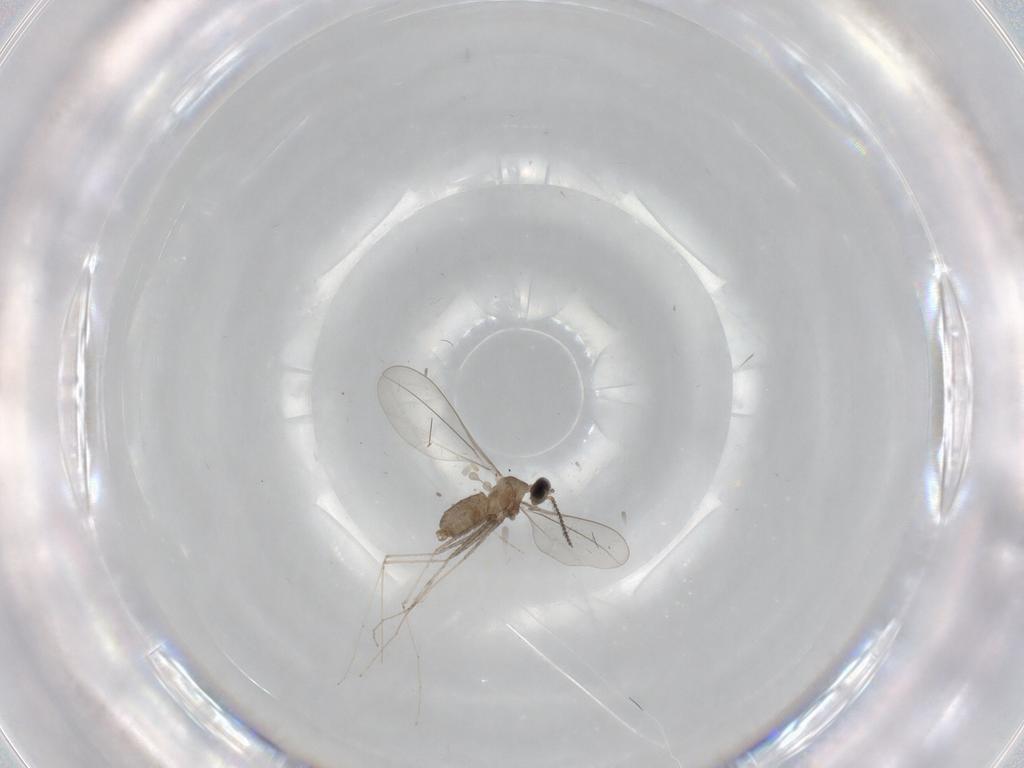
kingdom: Animalia
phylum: Arthropoda
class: Insecta
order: Diptera
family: Cecidomyiidae
